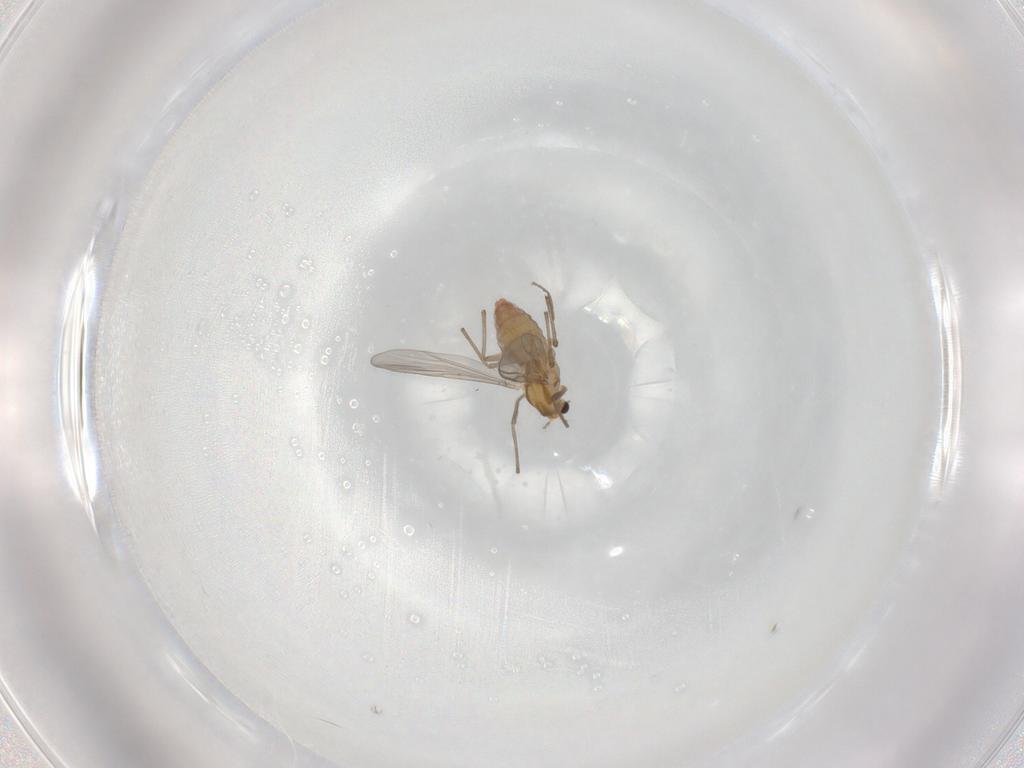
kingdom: Animalia
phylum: Arthropoda
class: Insecta
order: Diptera
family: Chironomidae
